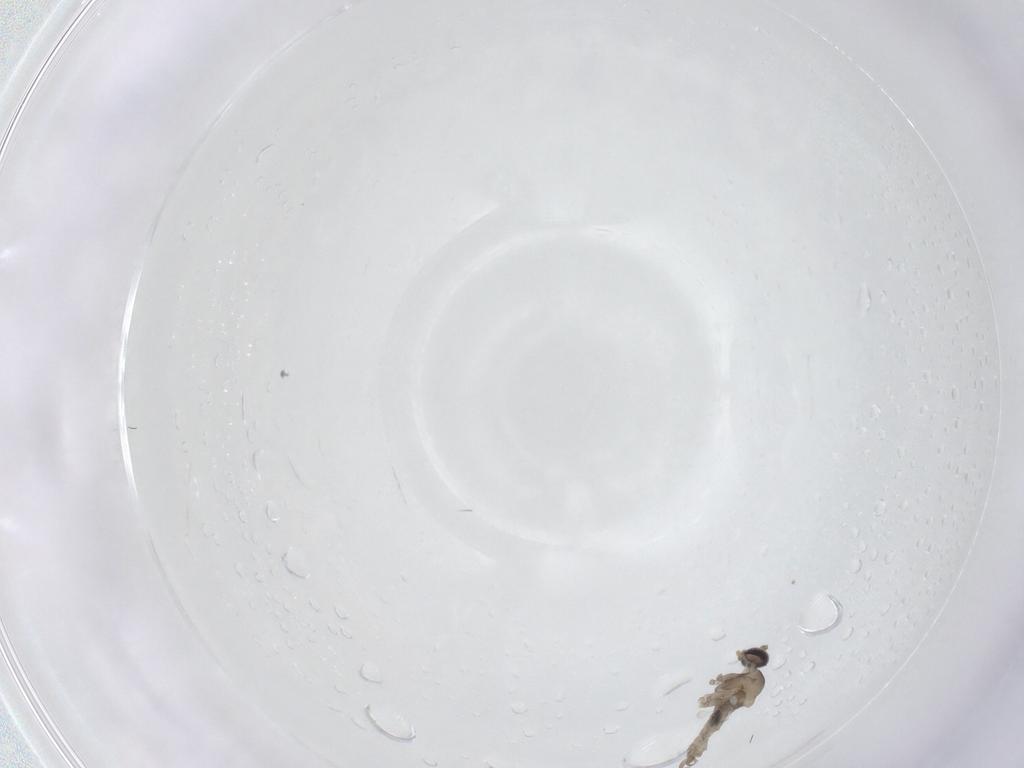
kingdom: Animalia
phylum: Arthropoda
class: Insecta
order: Diptera
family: Cecidomyiidae
